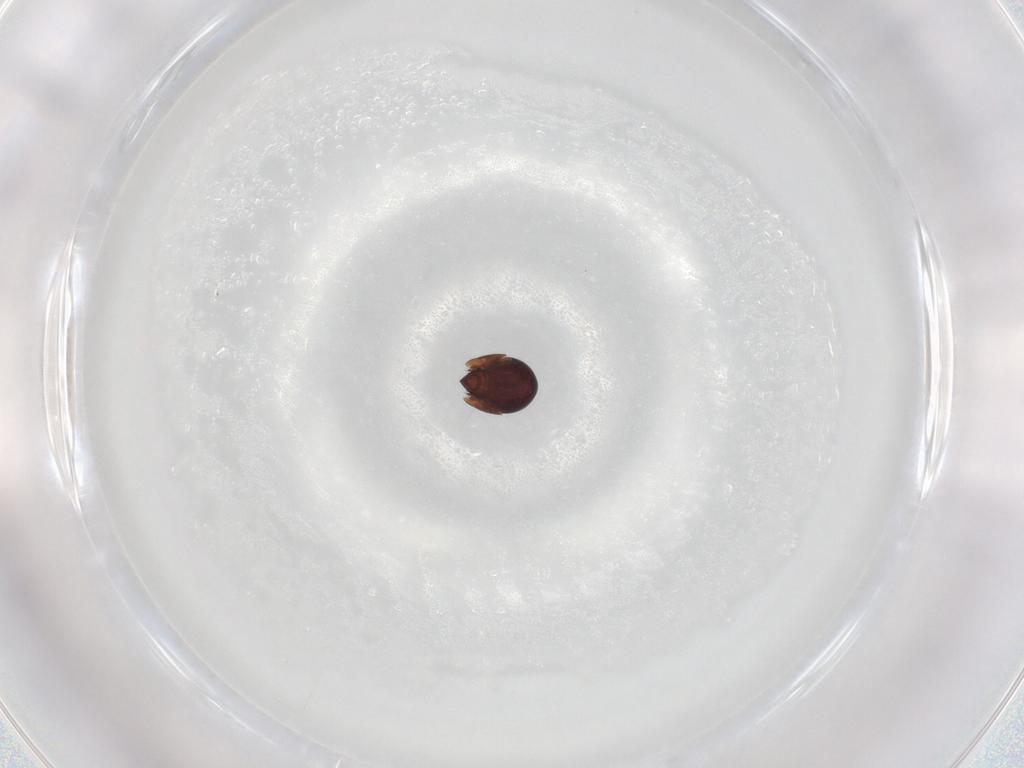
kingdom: Animalia
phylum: Arthropoda
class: Arachnida
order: Sarcoptiformes
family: Galumnidae
